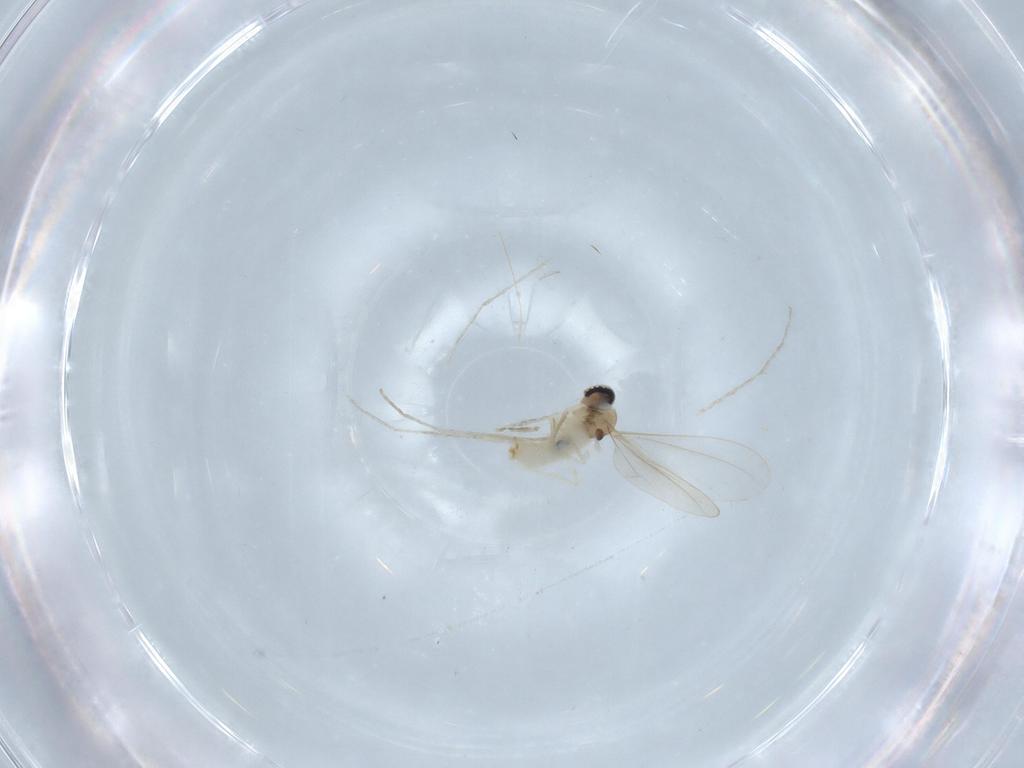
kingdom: Animalia
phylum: Arthropoda
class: Insecta
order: Diptera
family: Cecidomyiidae
